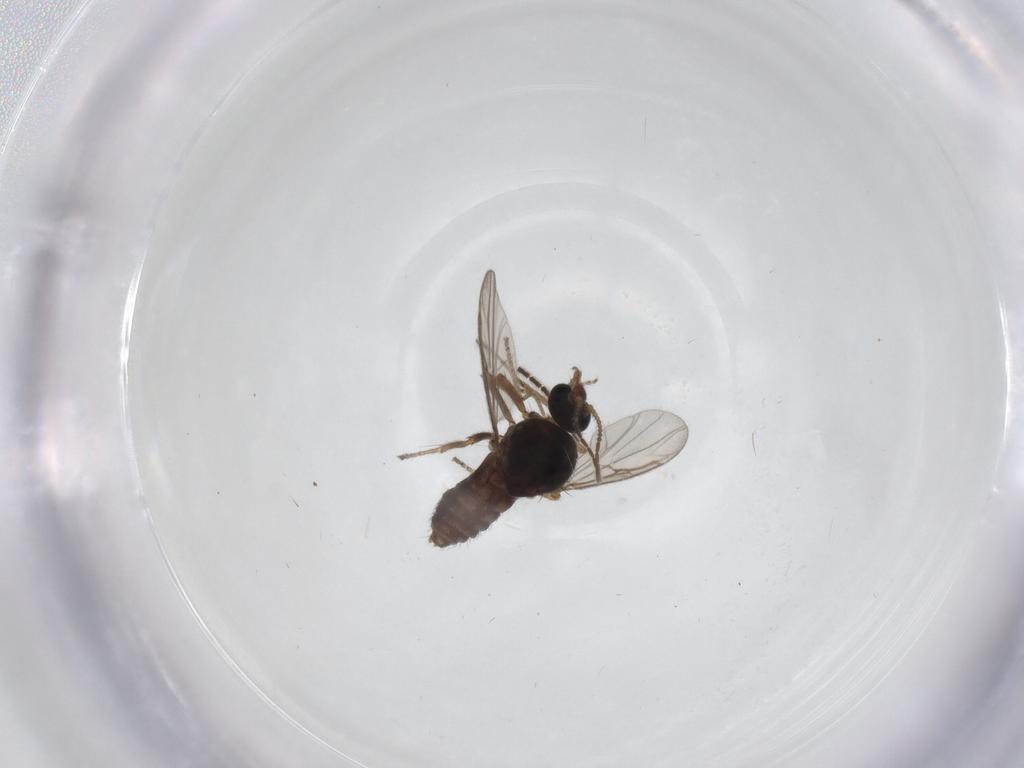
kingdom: Animalia
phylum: Arthropoda
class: Insecta
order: Diptera
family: Ceratopogonidae
